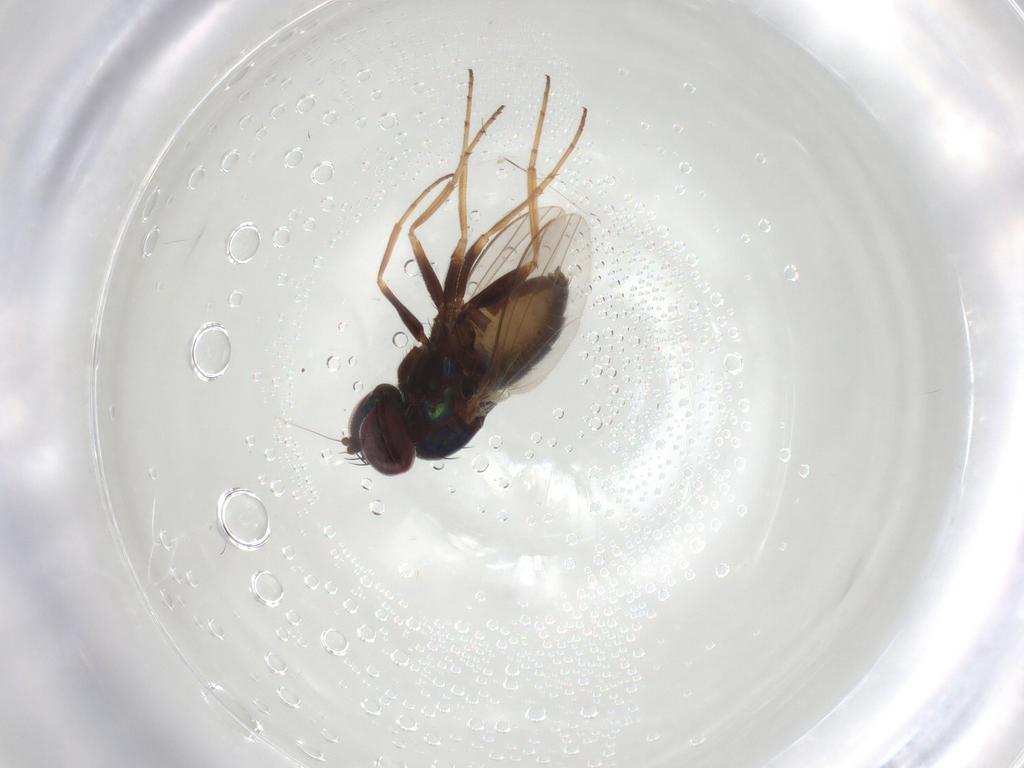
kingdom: Animalia
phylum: Arthropoda
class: Insecta
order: Diptera
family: Dolichopodidae
